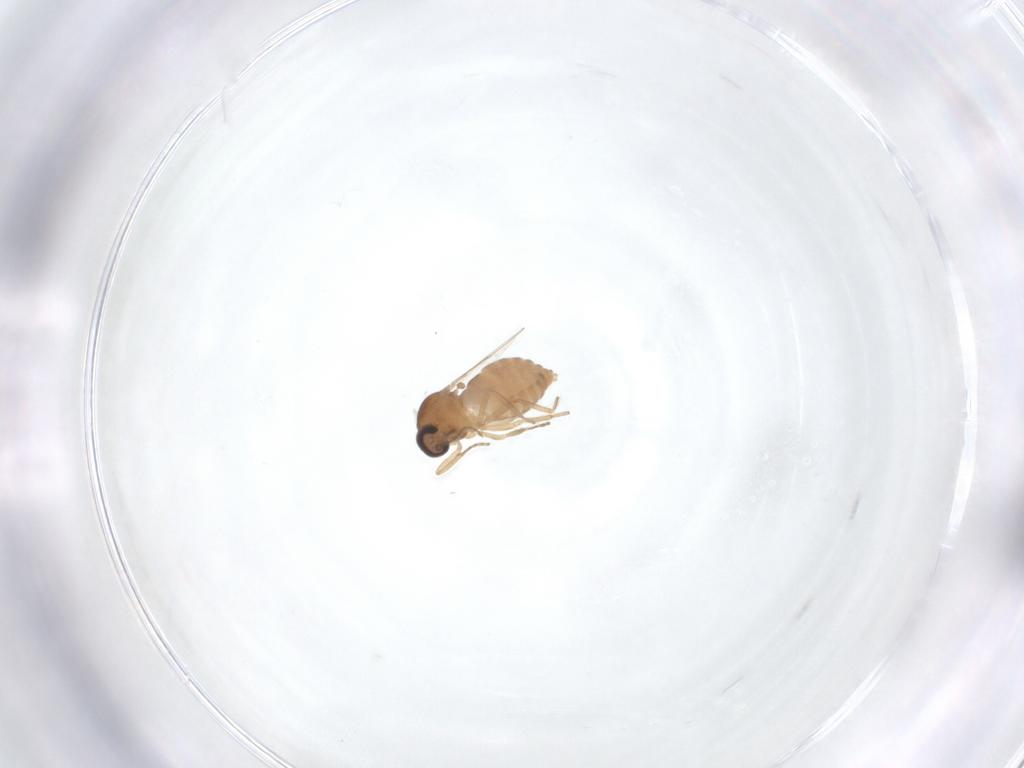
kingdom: Animalia
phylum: Arthropoda
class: Insecta
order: Diptera
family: Ceratopogonidae
